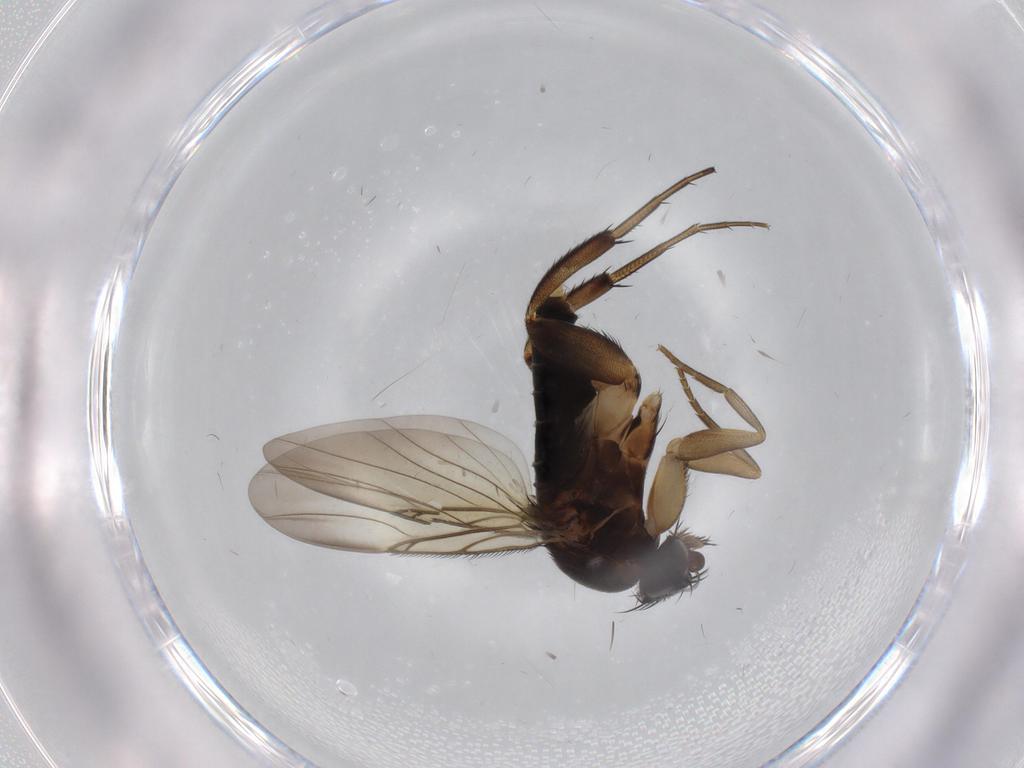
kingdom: Animalia
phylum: Arthropoda
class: Insecta
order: Diptera
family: Phoridae
